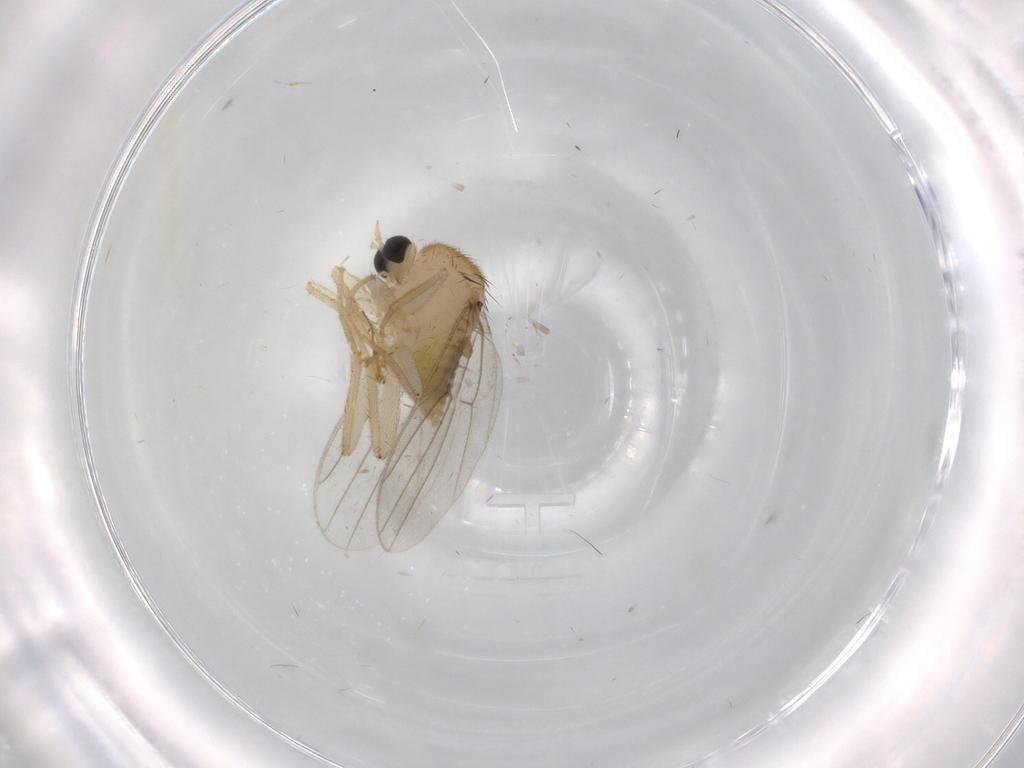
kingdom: Animalia
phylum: Arthropoda
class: Insecta
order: Diptera
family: Hybotidae
